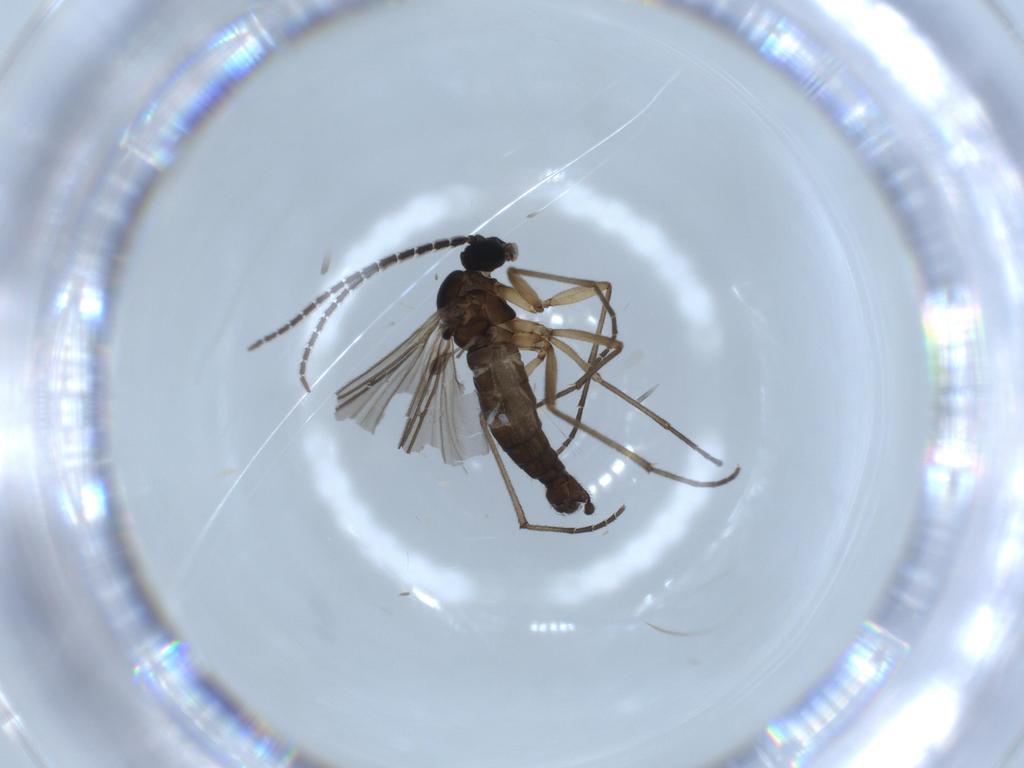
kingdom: Animalia
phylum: Arthropoda
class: Insecta
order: Diptera
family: Sciaridae
